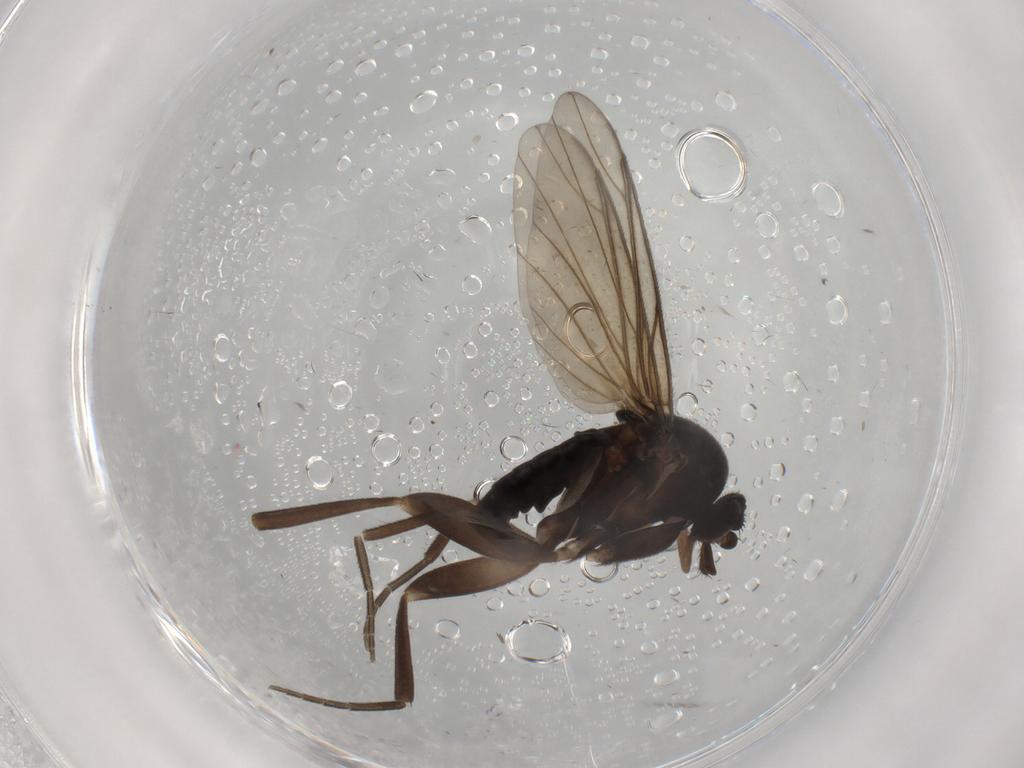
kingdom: Animalia
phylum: Arthropoda
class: Insecta
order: Diptera
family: Phoridae
